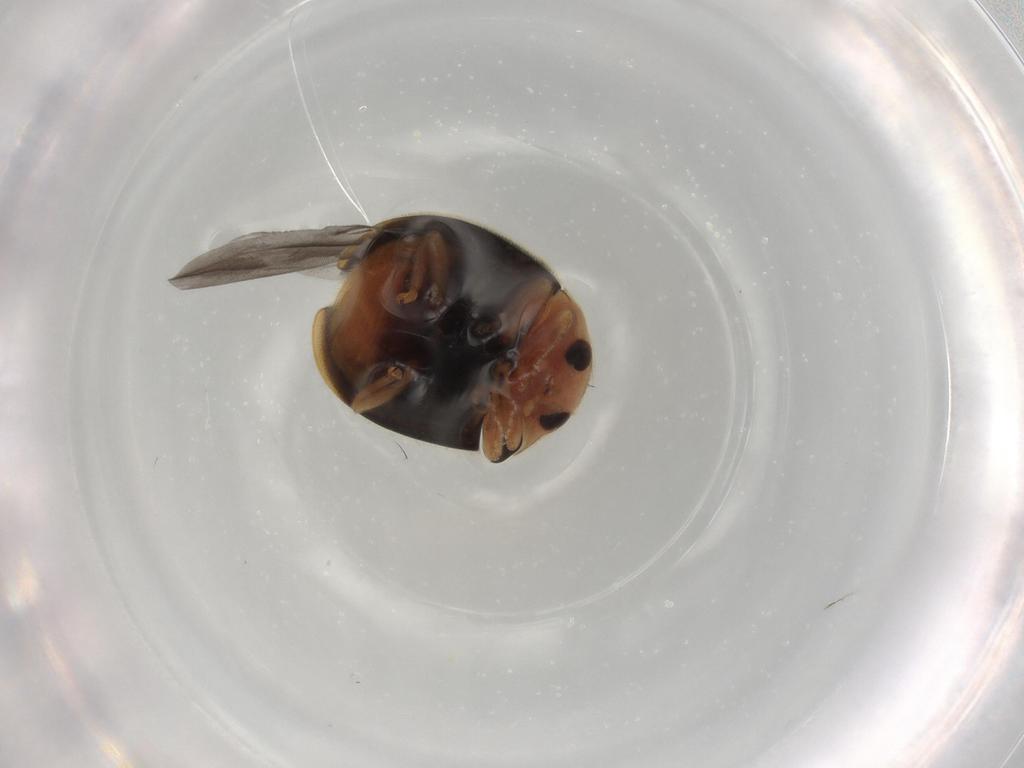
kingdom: Animalia
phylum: Arthropoda
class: Insecta
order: Coleoptera
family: Coccinellidae
